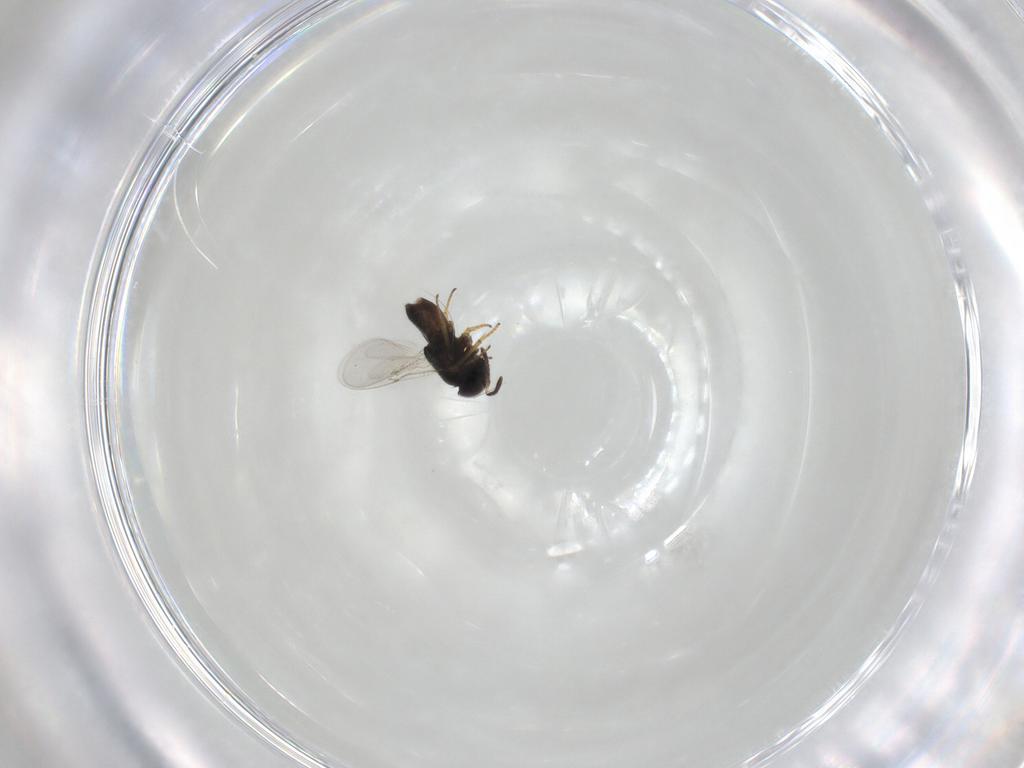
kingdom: Animalia
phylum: Arthropoda
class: Insecta
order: Hymenoptera
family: Encyrtidae
